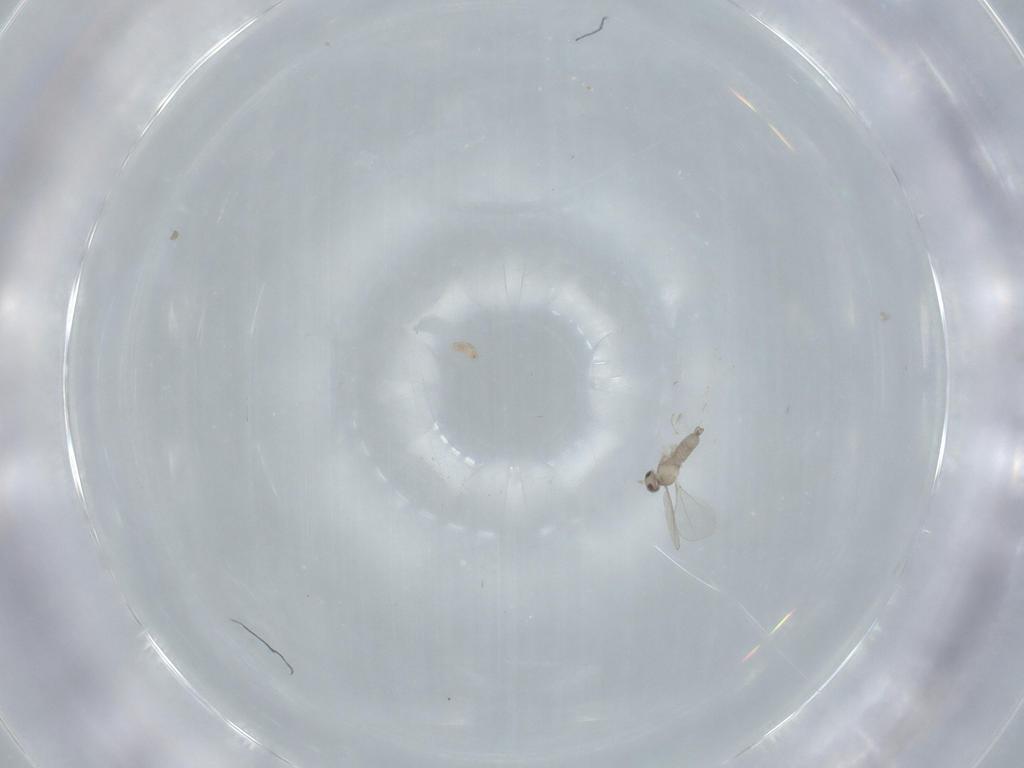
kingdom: Animalia
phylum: Arthropoda
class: Insecta
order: Diptera
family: Cecidomyiidae
